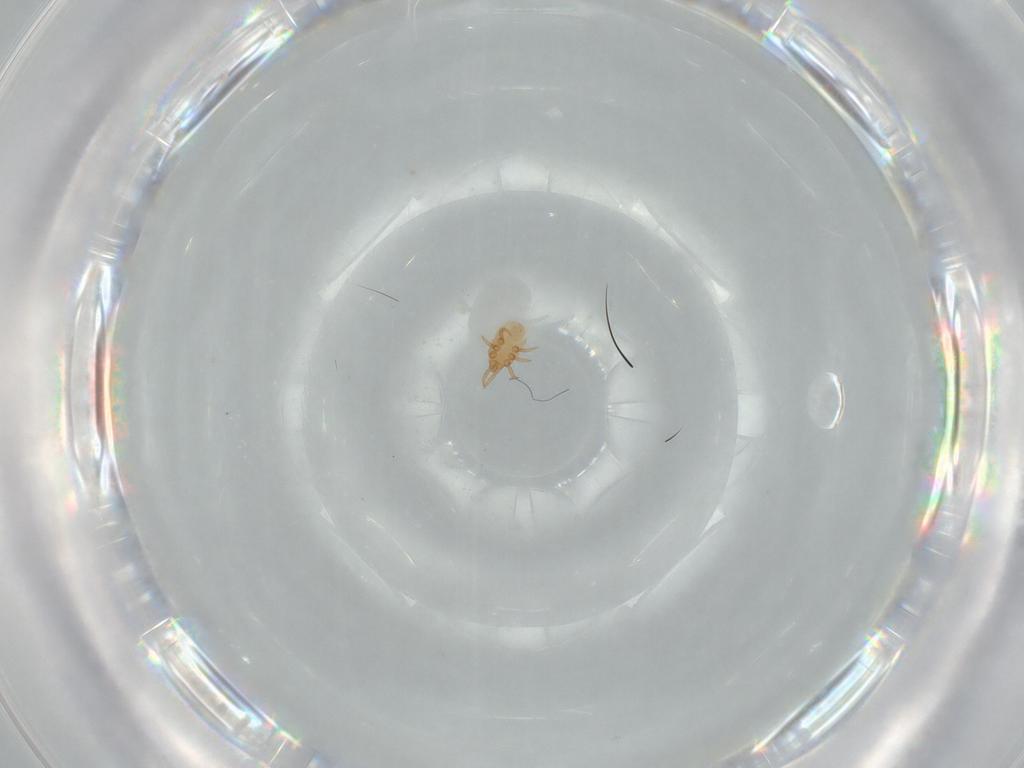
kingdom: Animalia
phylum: Arthropoda
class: Arachnida
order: Mesostigmata
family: Dinychidae
